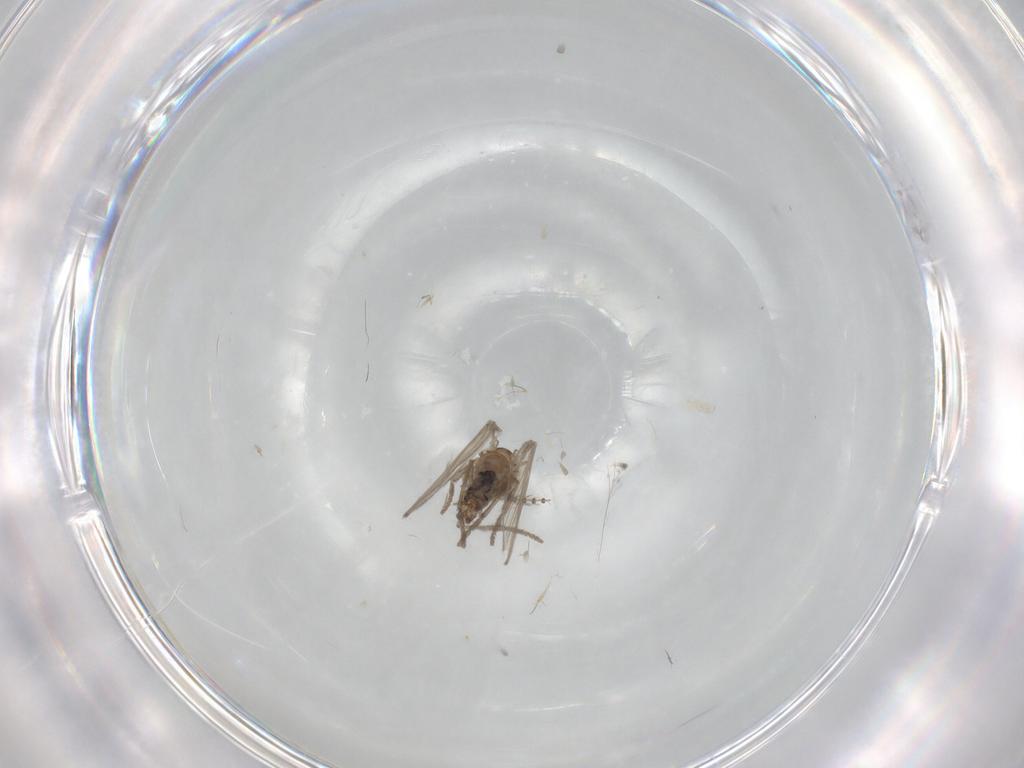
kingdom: Animalia
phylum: Arthropoda
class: Insecta
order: Diptera
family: Psychodidae
